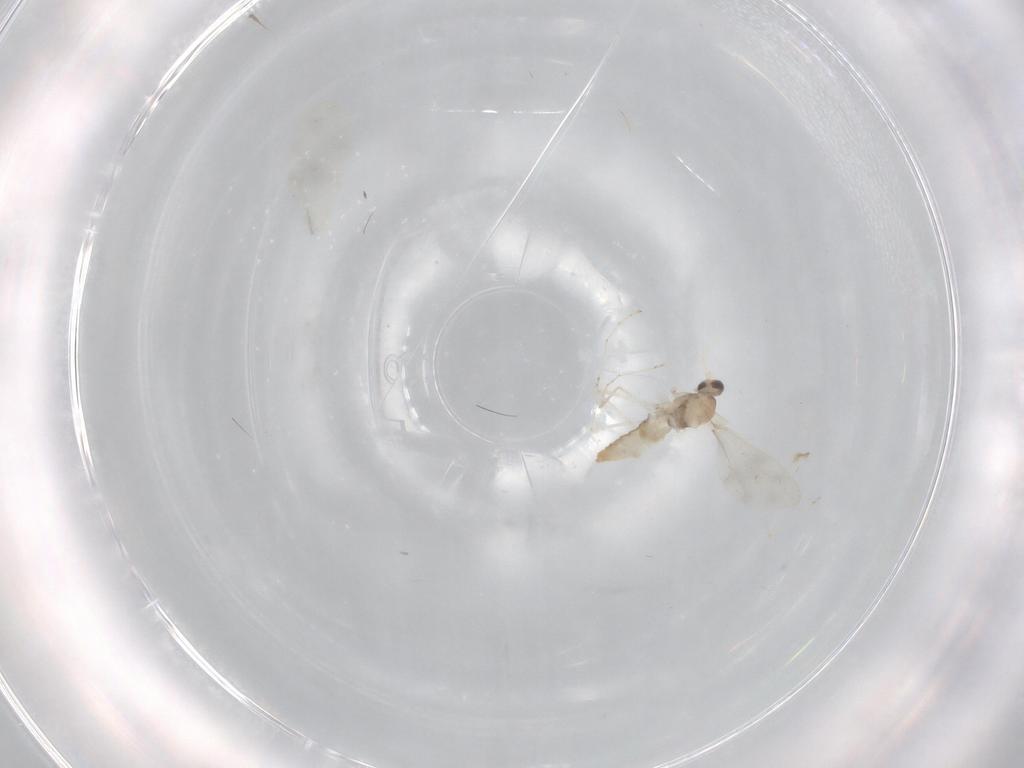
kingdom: Animalia
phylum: Arthropoda
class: Insecta
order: Diptera
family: Cecidomyiidae
